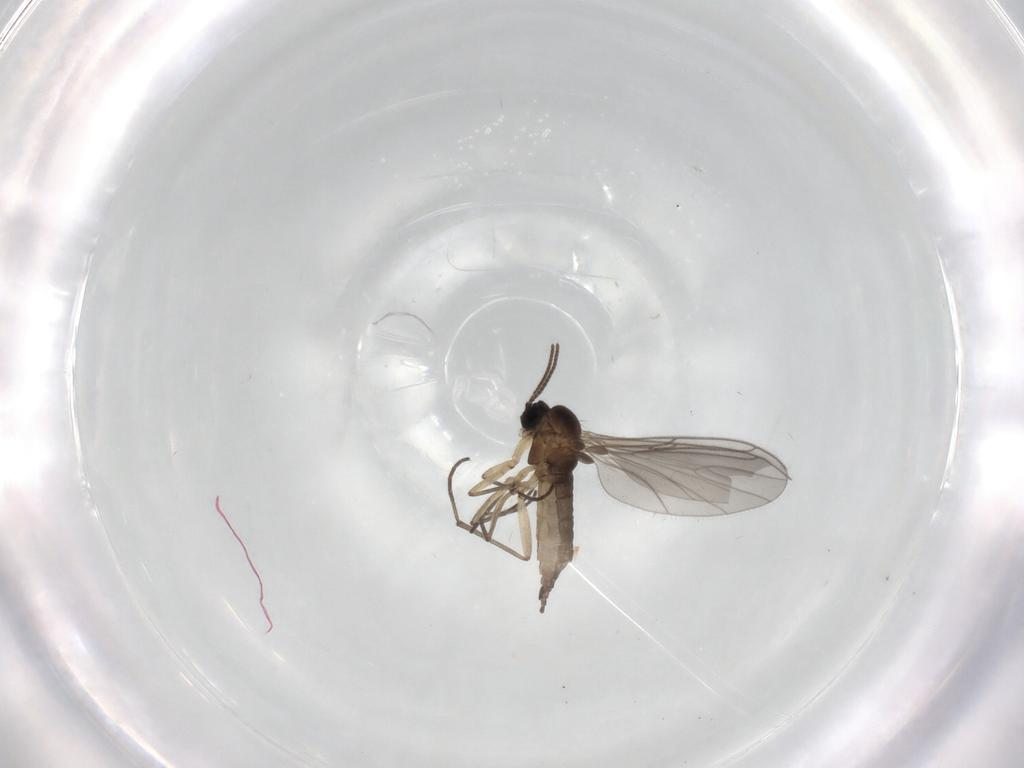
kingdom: Animalia
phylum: Arthropoda
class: Insecta
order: Diptera
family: Sciaridae
